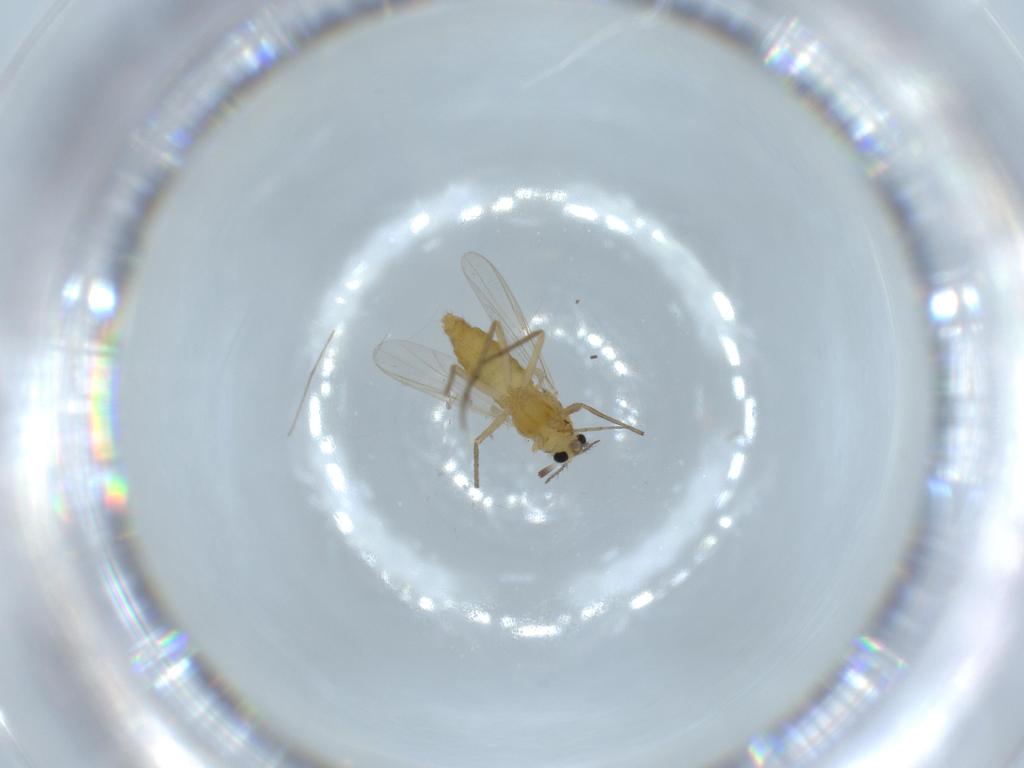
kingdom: Animalia
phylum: Arthropoda
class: Insecta
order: Diptera
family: Chironomidae
